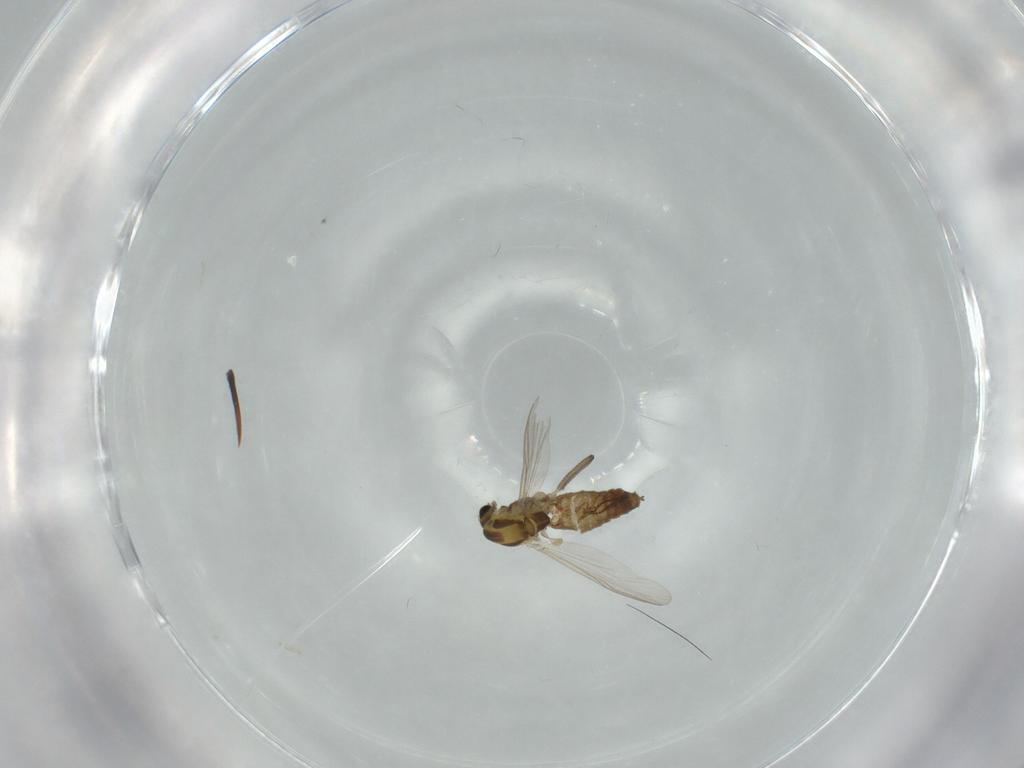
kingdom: Animalia
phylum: Arthropoda
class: Insecta
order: Diptera
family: Chironomidae
